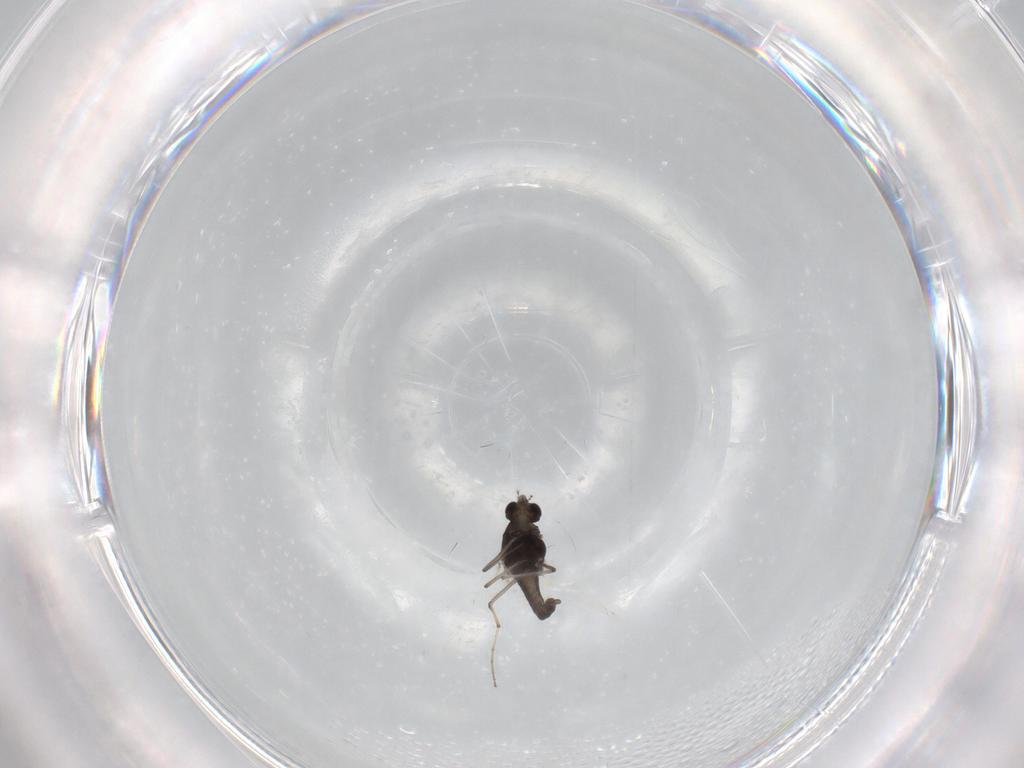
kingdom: Animalia
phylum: Arthropoda
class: Insecta
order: Diptera
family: Chironomidae
